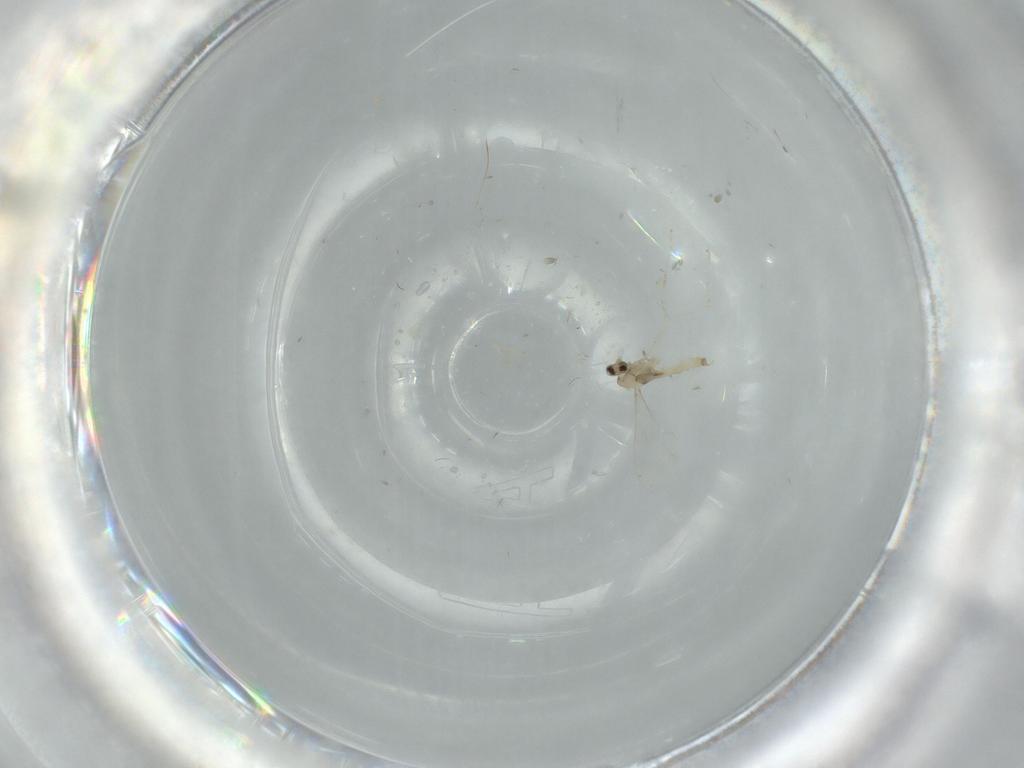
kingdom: Animalia
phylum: Arthropoda
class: Insecta
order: Diptera
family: Cecidomyiidae
